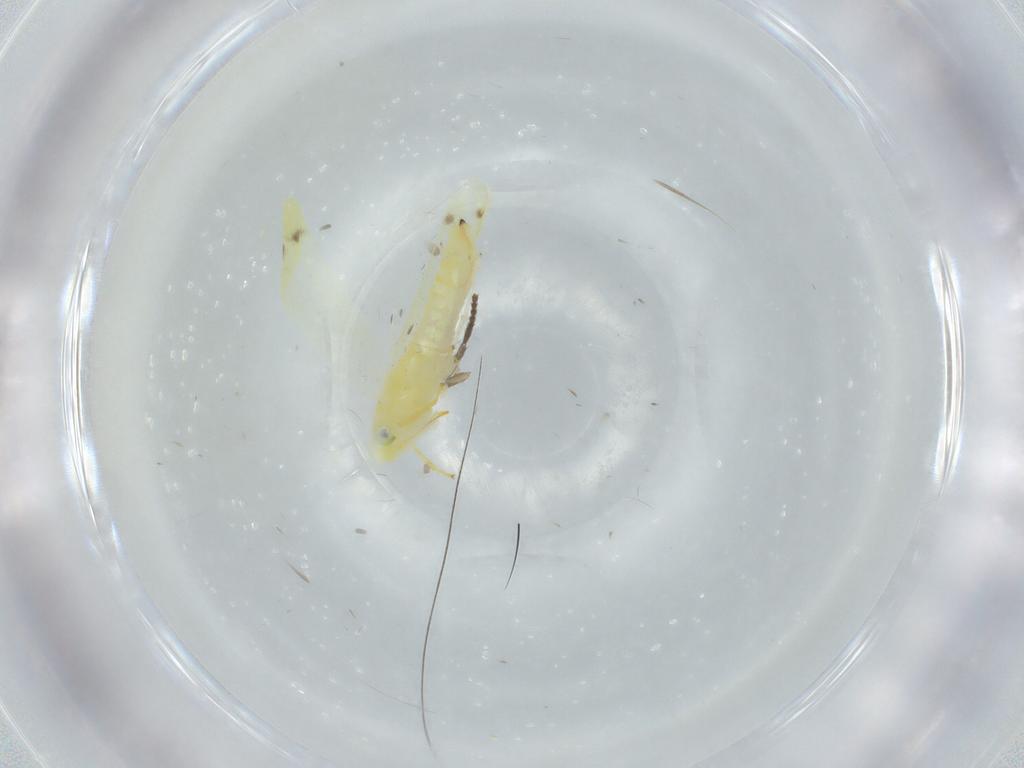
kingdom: Animalia
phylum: Arthropoda
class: Insecta
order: Hemiptera
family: Cicadellidae
